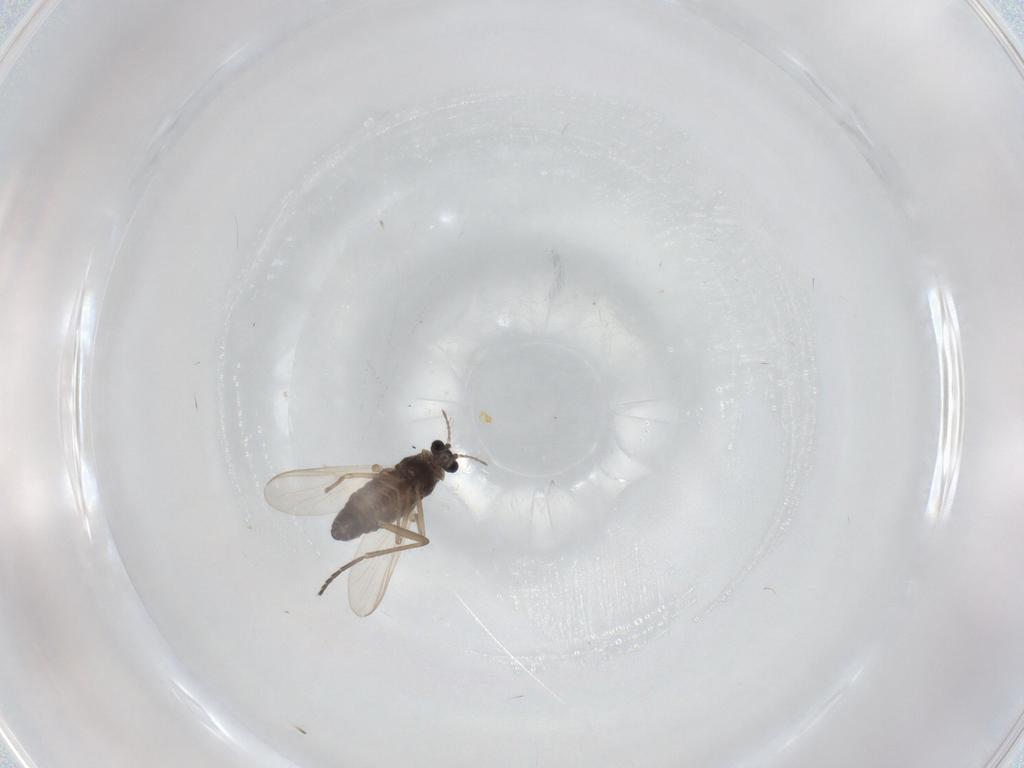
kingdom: Animalia
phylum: Arthropoda
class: Insecta
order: Diptera
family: Chironomidae
